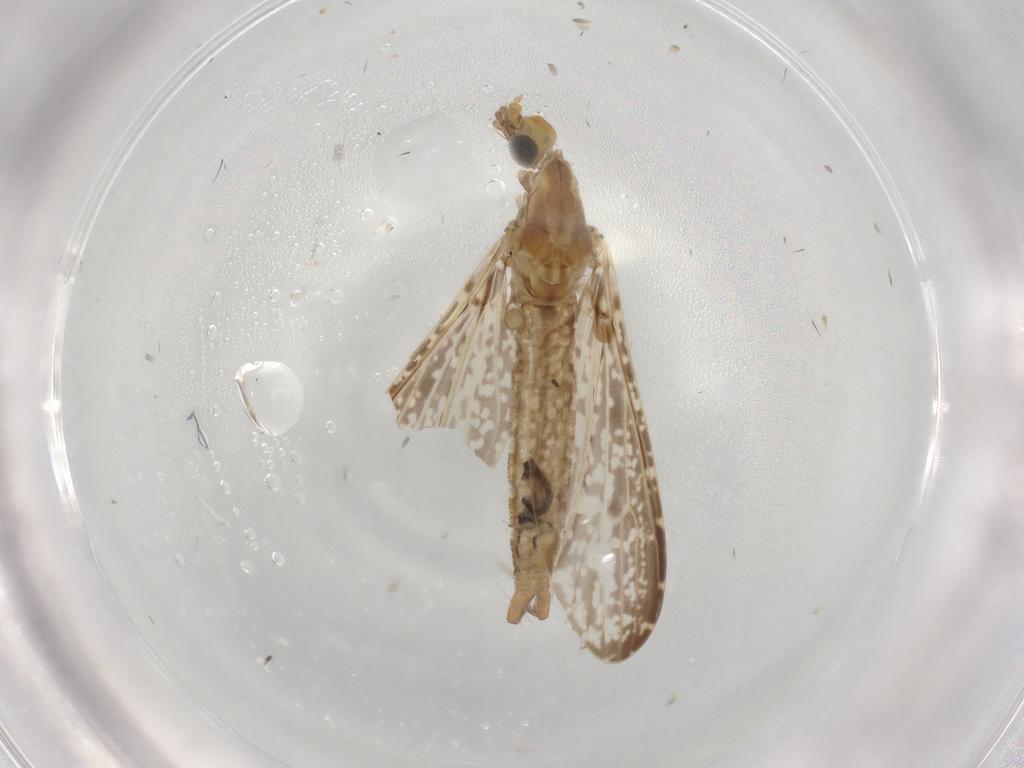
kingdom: Animalia
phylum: Arthropoda
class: Insecta
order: Diptera
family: Limoniidae
